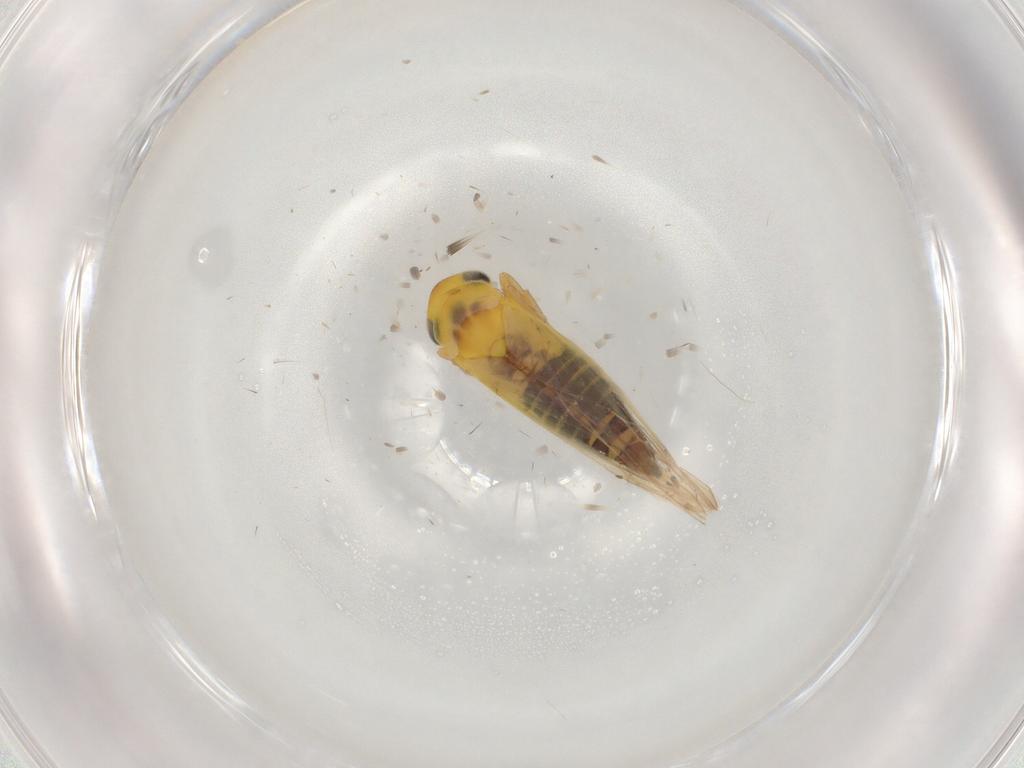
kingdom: Animalia
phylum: Arthropoda
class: Insecta
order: Hemiptera
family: Cicadellidae
